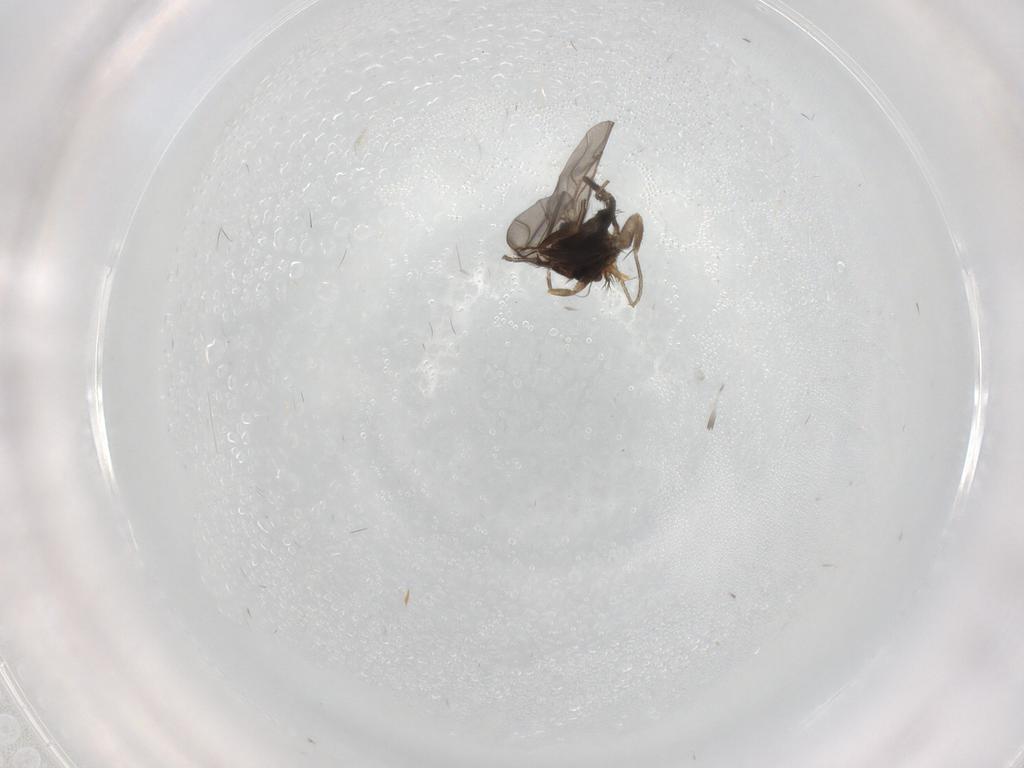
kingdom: Animalia
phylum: Arthropoda
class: Insecta
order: Diptera
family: Phoridae
